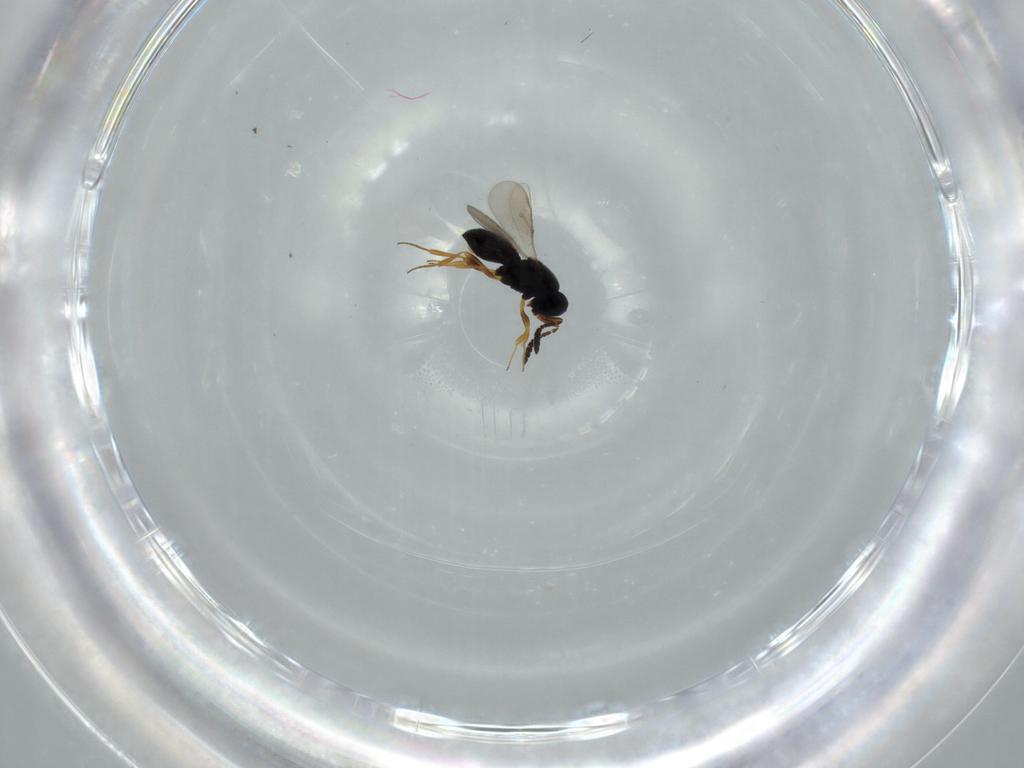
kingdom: Animalia
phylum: Arthropoda
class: Insecta
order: Hymenoptera
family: Scelionidae
